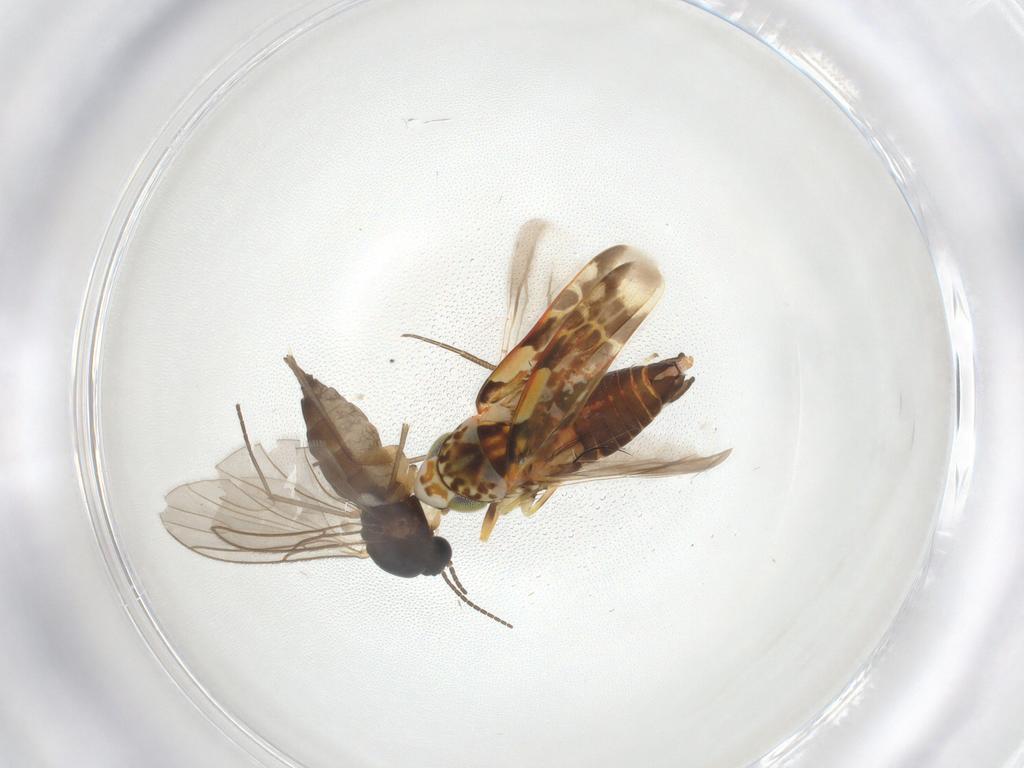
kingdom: Animalia
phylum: Arthropoda
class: Insecta
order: Diptera
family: Sciaridae
